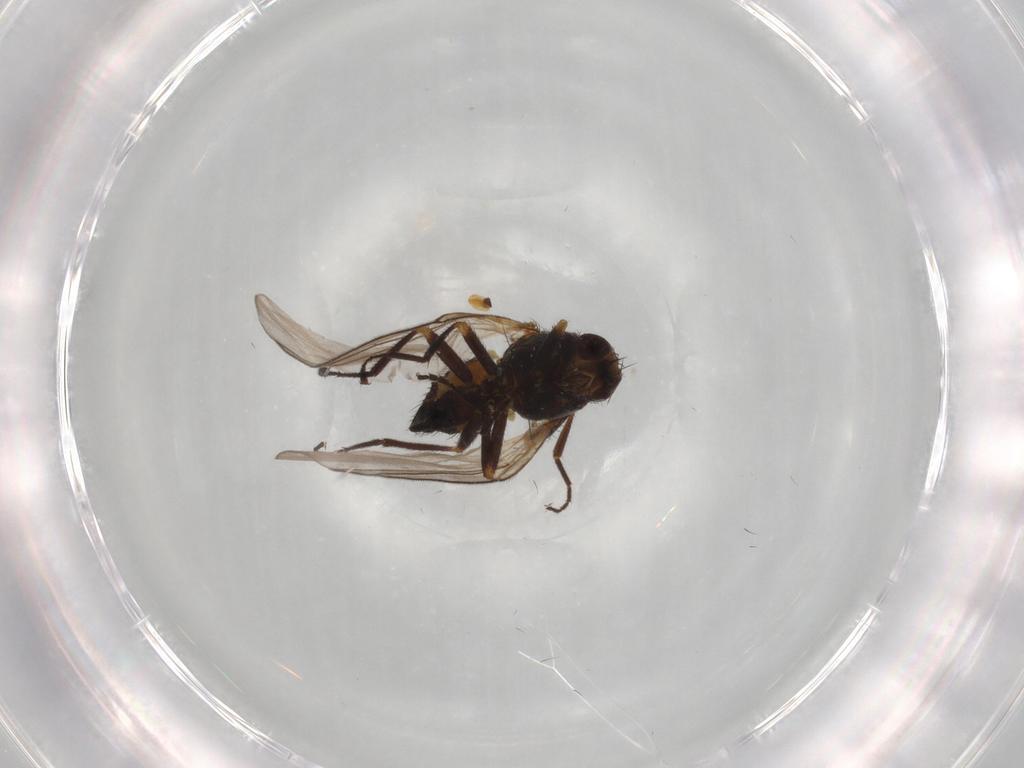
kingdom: Animalia
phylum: Arthropoda
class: Insecta
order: Diptera
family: Agromyzidae
